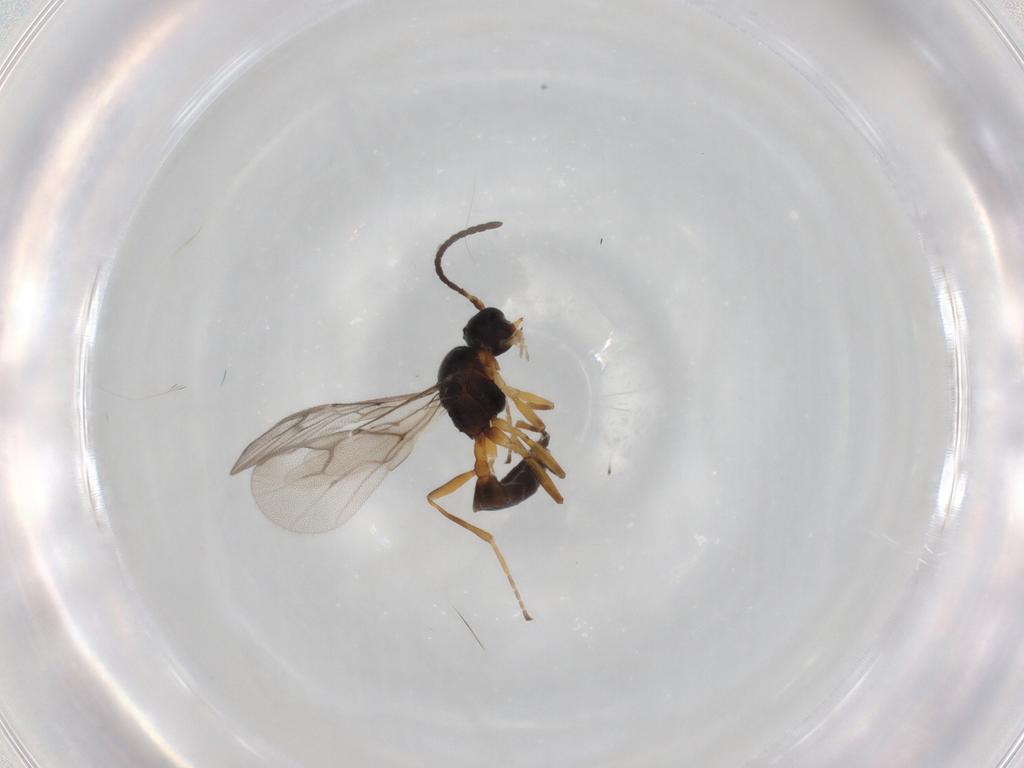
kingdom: Animalia
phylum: Arthropoda
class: Insecta
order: Hymenoptera
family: Braconidae
